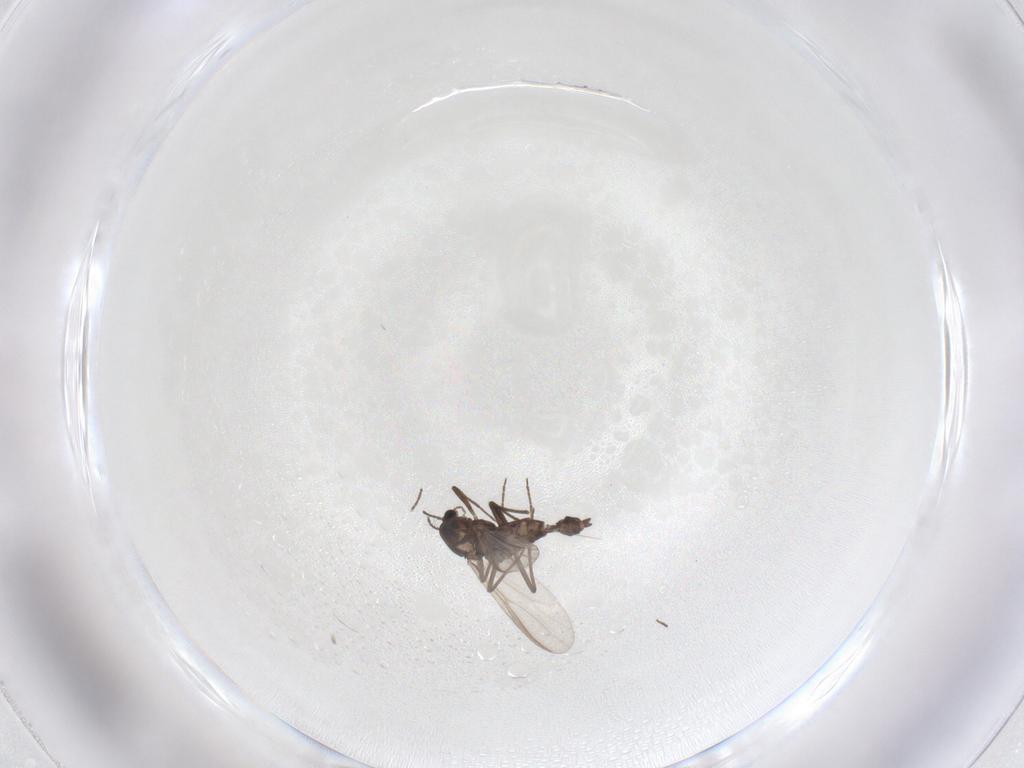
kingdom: Animalia
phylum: Arthropoda
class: Insecta
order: Diptera
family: Chironomidae
